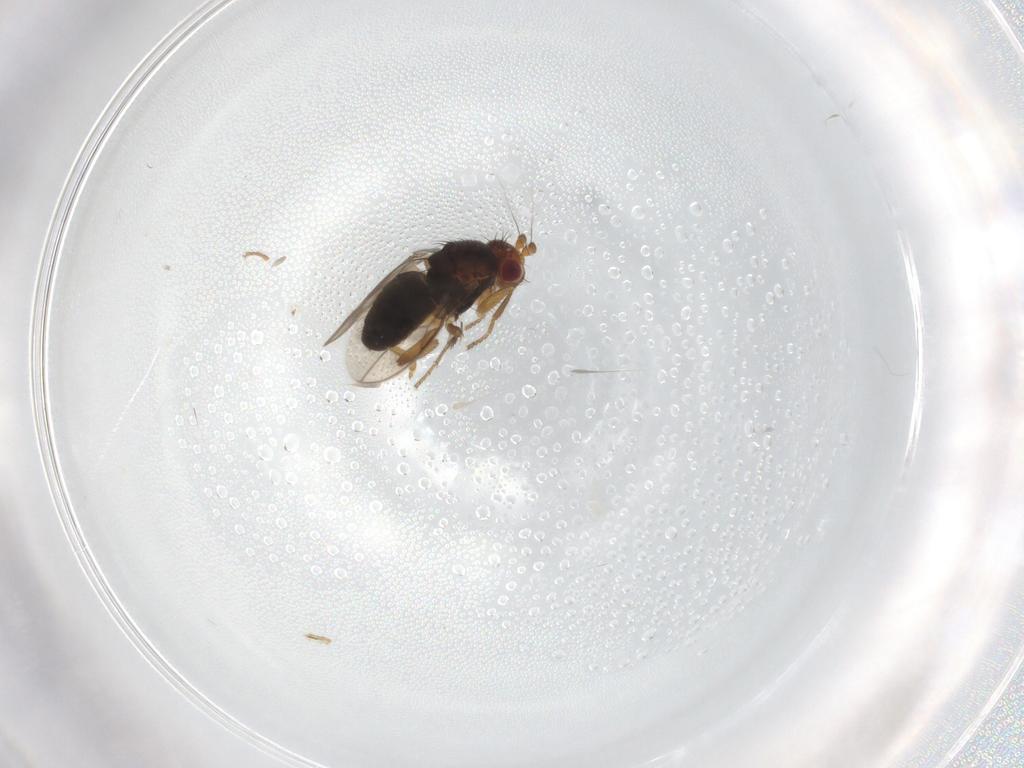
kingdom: Animalia
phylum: Arthropoda
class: Insecta
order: Diptera
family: Sphaeroceridae
